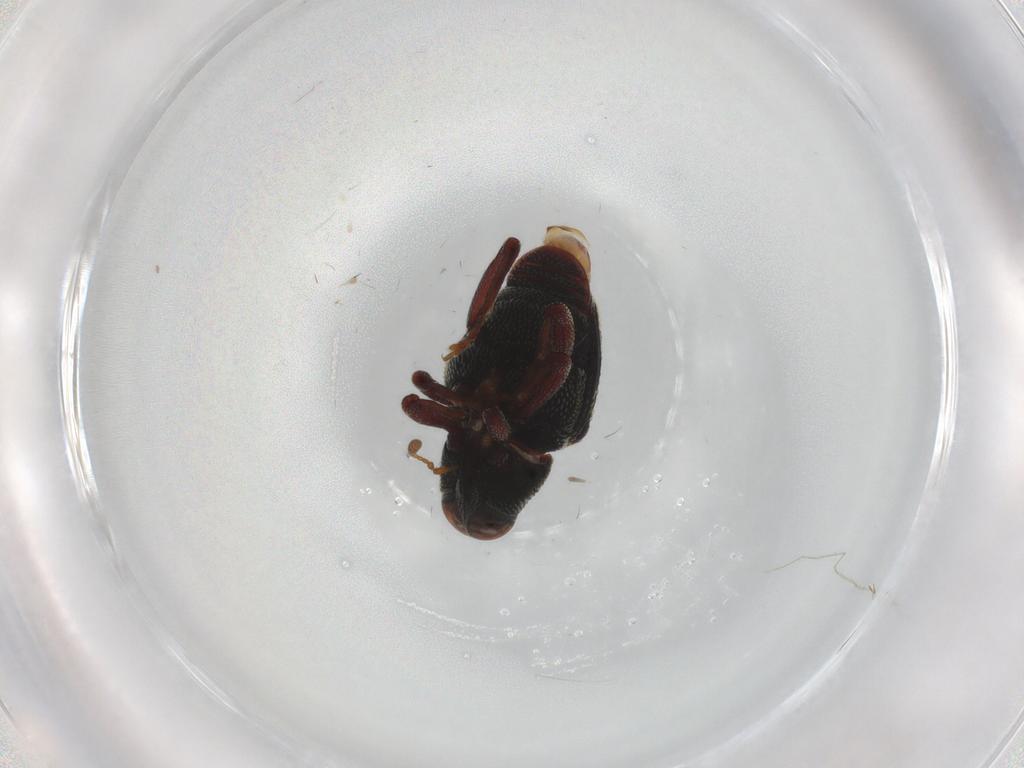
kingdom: Animalia
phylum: Arthropoda
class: Insecta
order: Coleoptera
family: Curculionidae
